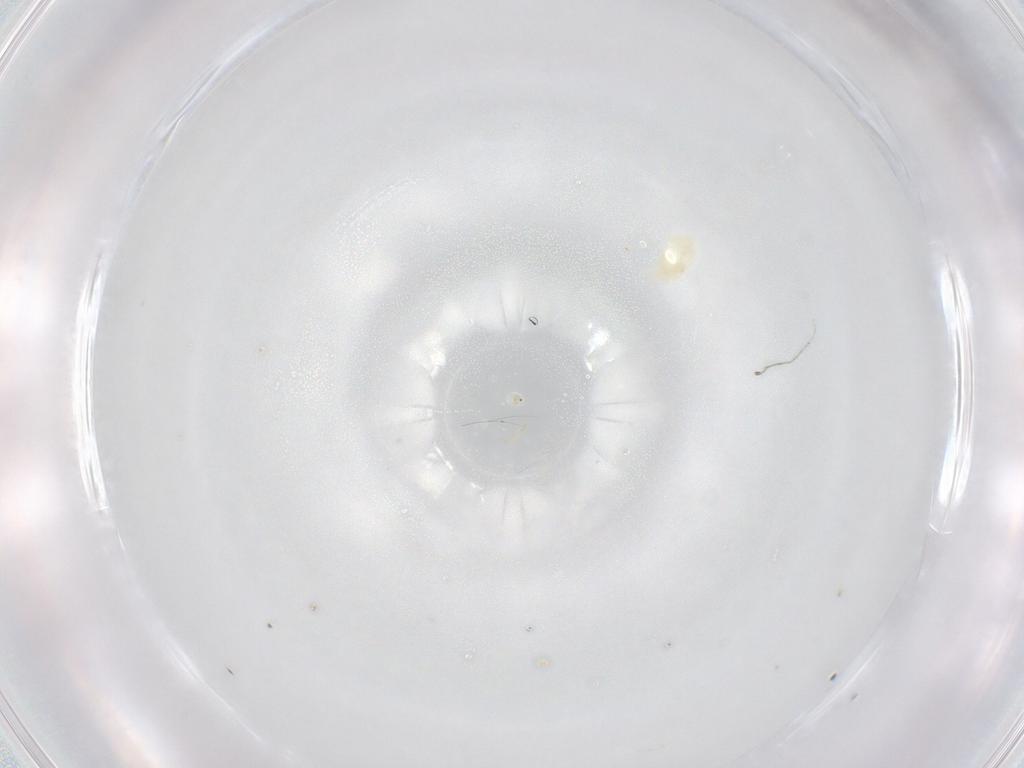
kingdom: Animalia
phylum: Arthropoda
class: Arachnida
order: Trombidiformes
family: Eupodidae
